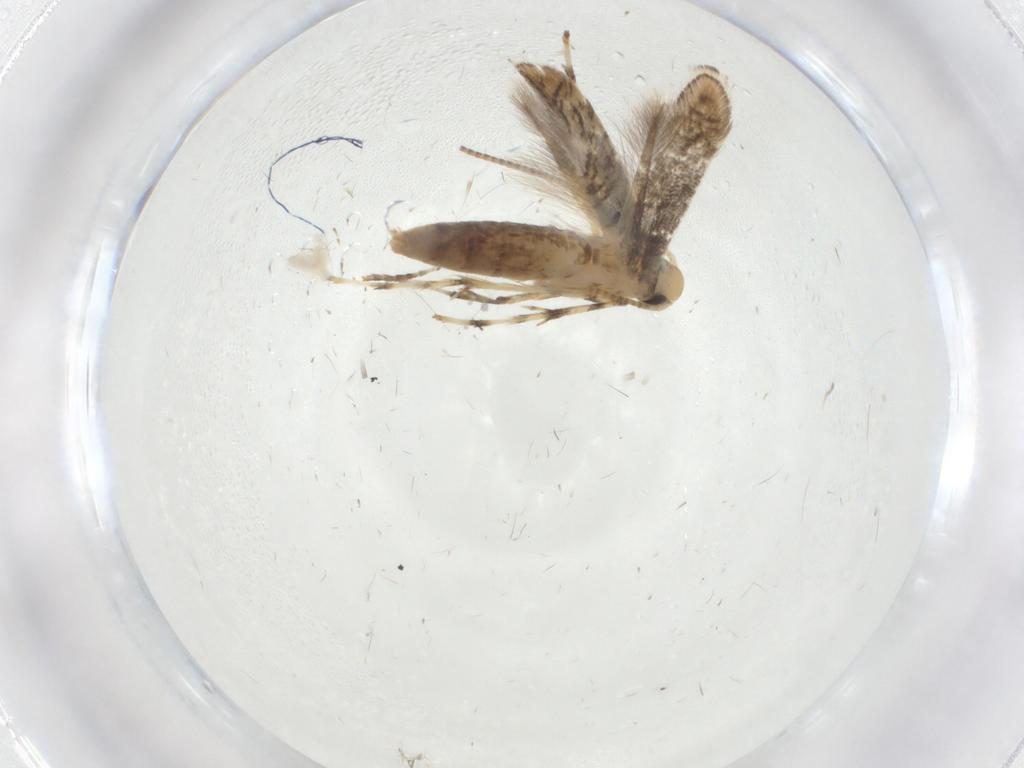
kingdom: Animalia
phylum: Arthropoda
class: Insecta
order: Lepidoptera
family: Gracillariidae
